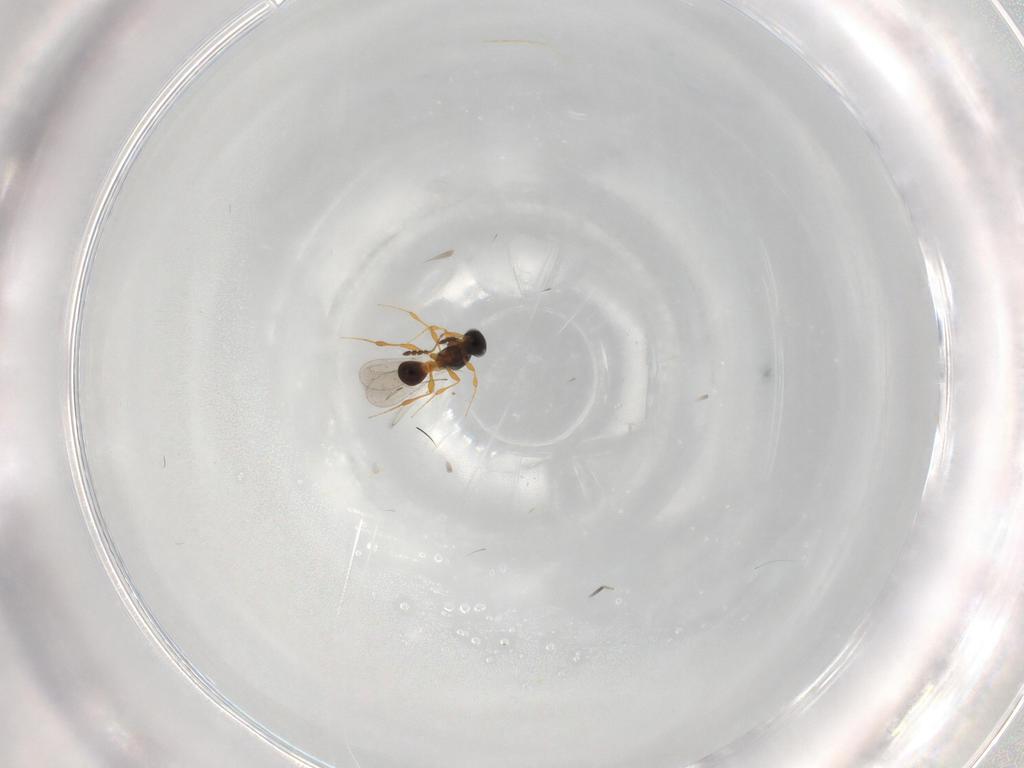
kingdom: Animalia
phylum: Arthropoda
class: Insecta
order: Hymenoptera
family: Platygastridae
